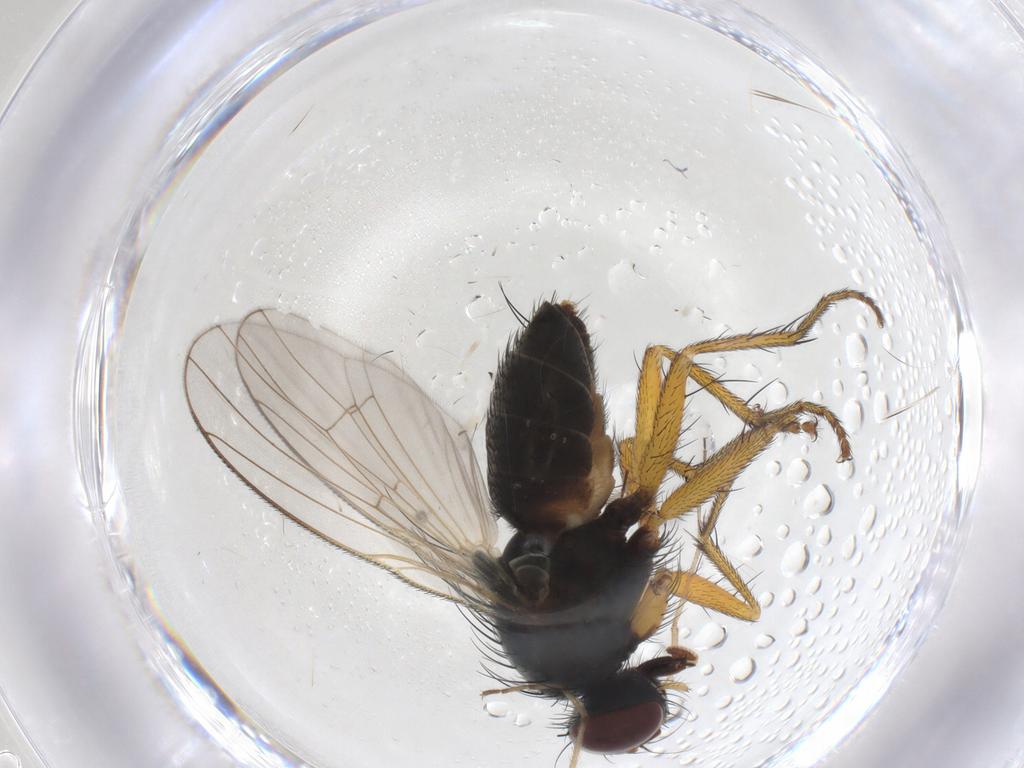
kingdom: Animalia
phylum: Arthropoda
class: Insecta
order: Diptera
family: Muscidae
